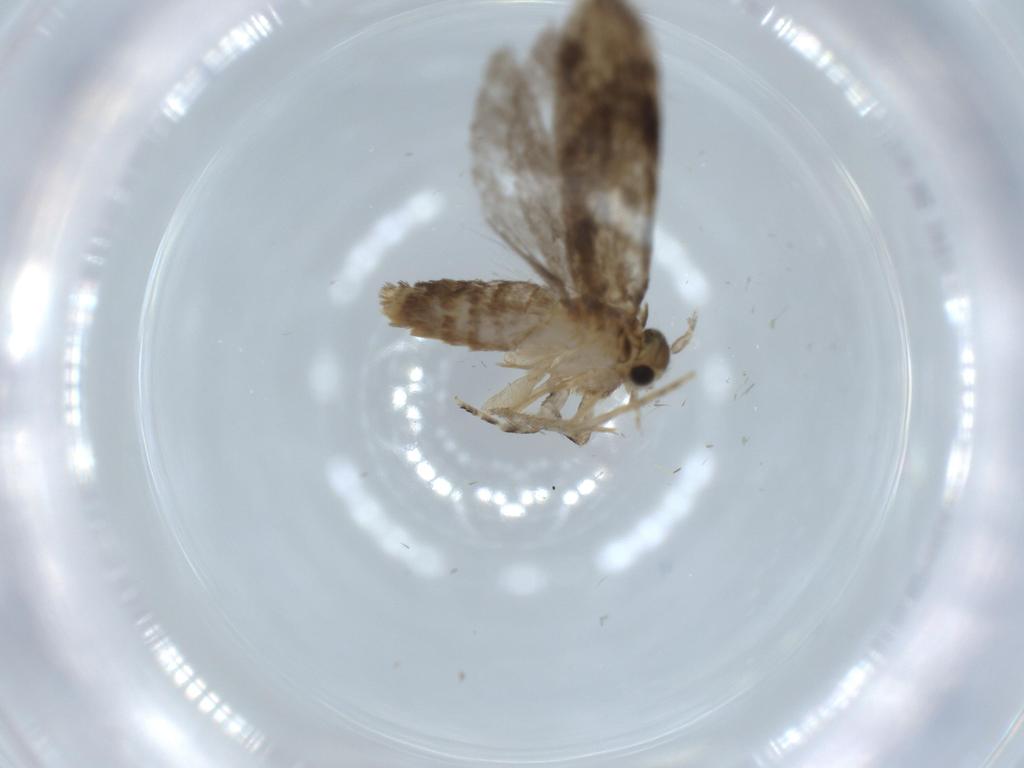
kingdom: Animalia
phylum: Arthropoda
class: Insecta
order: Lepidoptera
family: Tineidae
